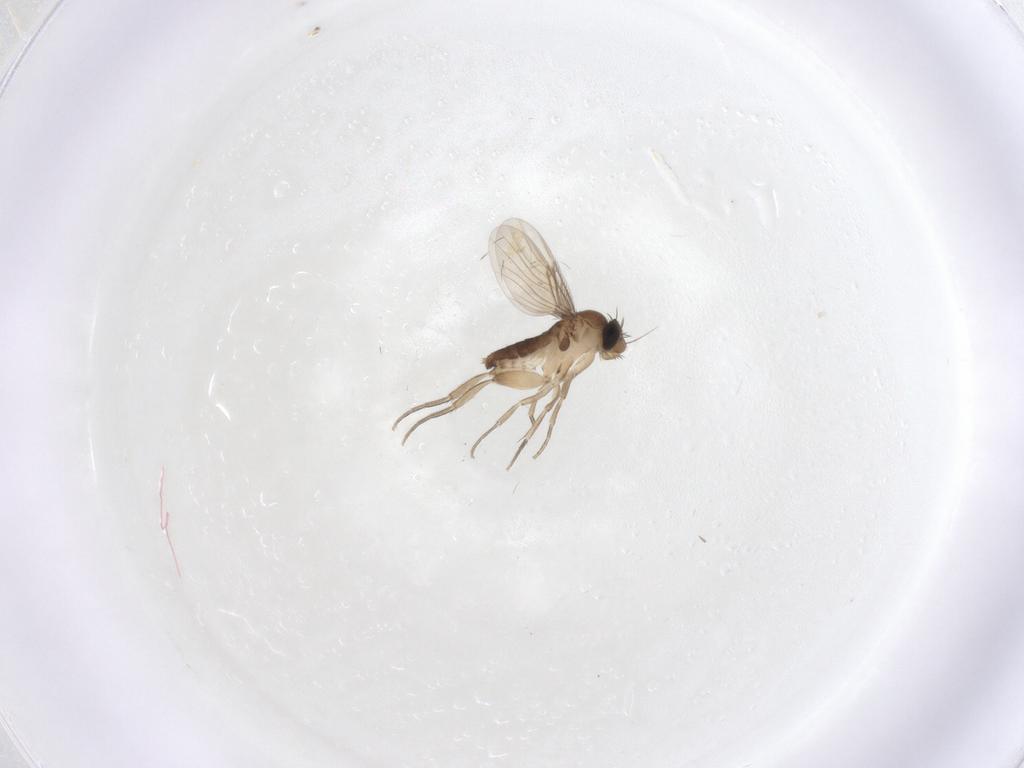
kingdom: Animalia
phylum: Arthropoda
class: Insecta
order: Diptera
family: Phoridae
